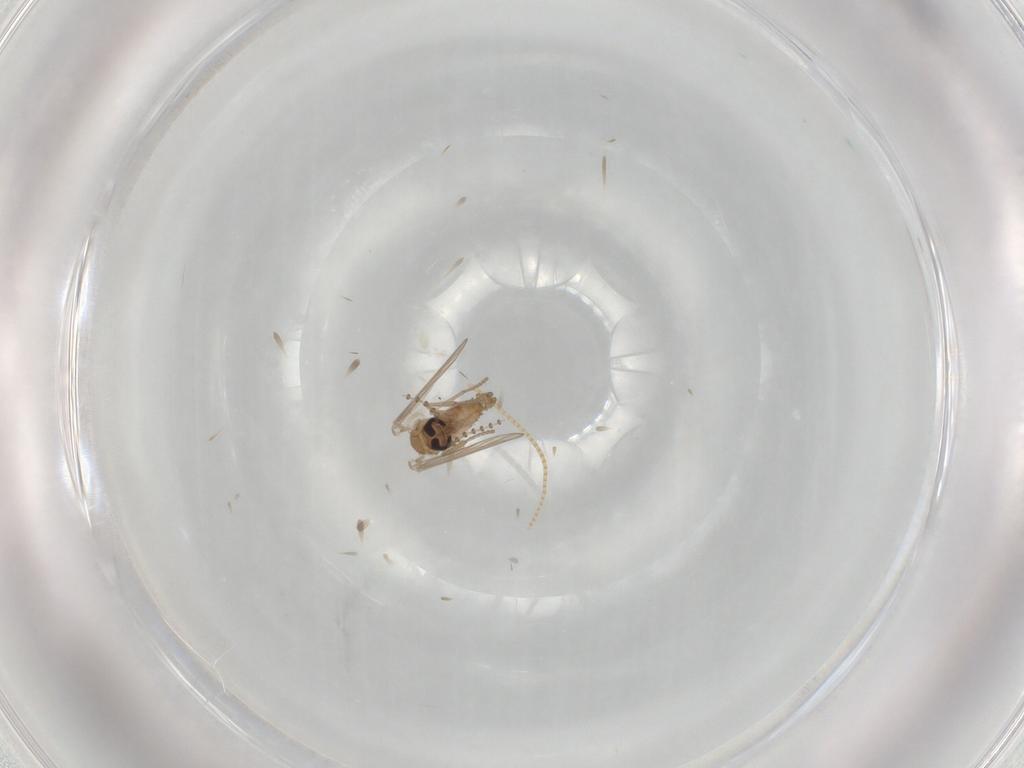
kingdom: Animalia
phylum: Arthropoda
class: Insecta
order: Diptera
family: Psychodidae
